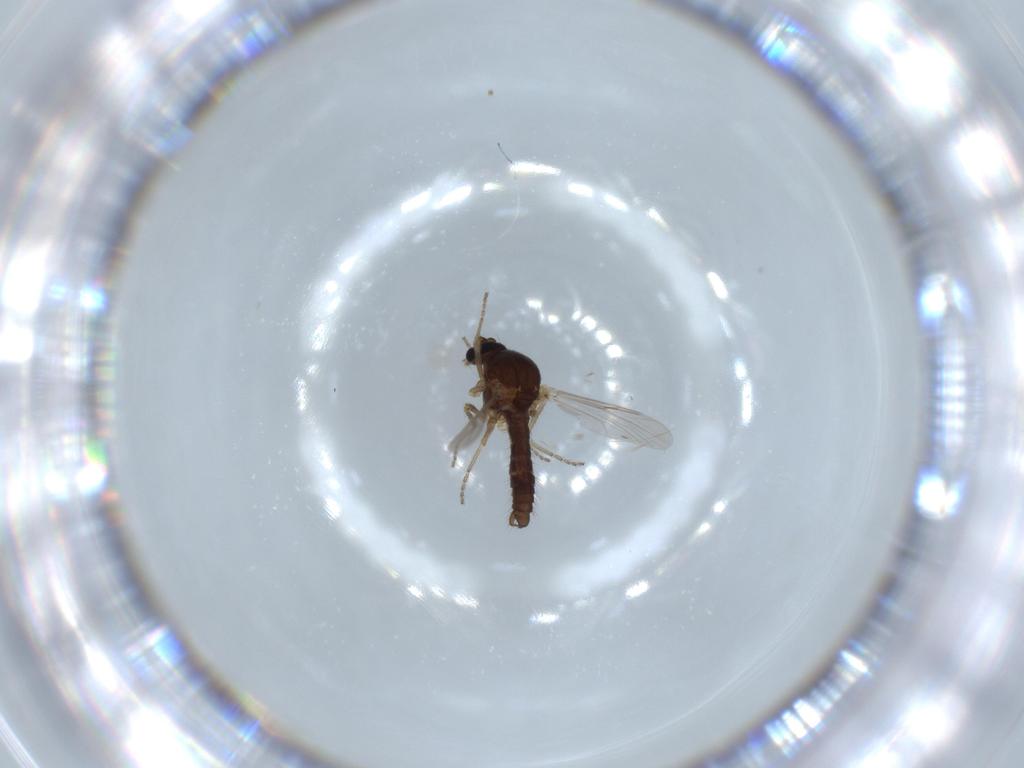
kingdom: Animalia
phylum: Arthropoda
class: Insecta
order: Diptera
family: Ceratopogonidae
